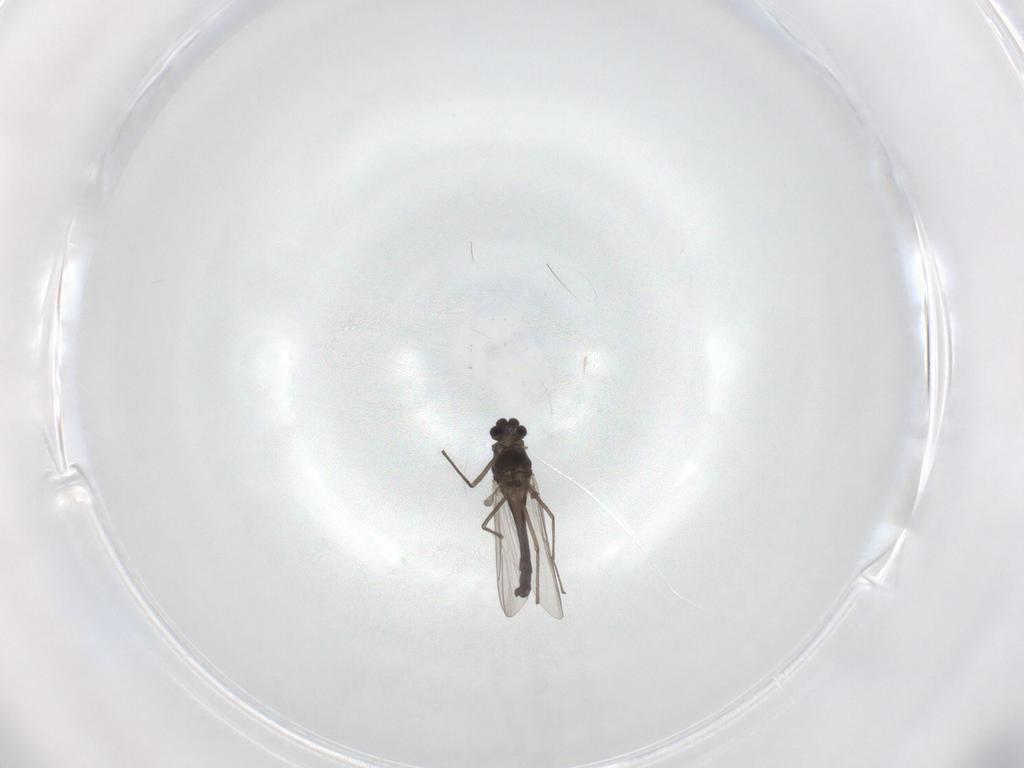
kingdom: Animalia
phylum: Arthropoda
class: Insecta
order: Diptera
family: Chironomidae
